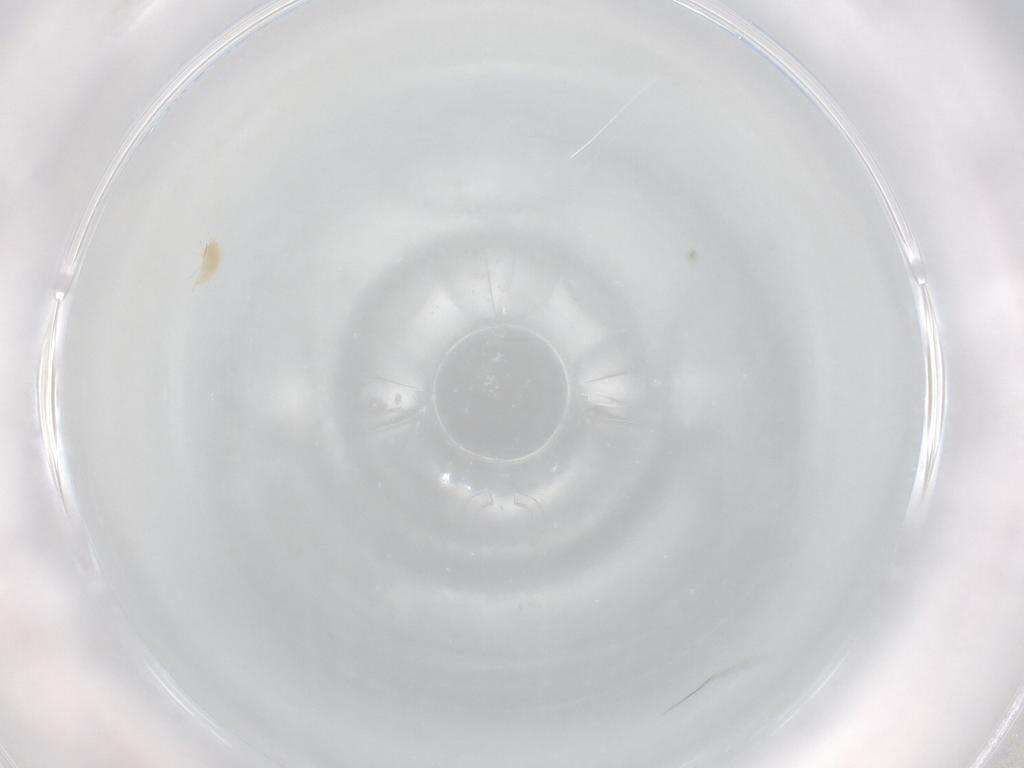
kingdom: Animalia
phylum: Arthropoda
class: Arachnida
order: Trombidiformes
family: Stigmaeidae
